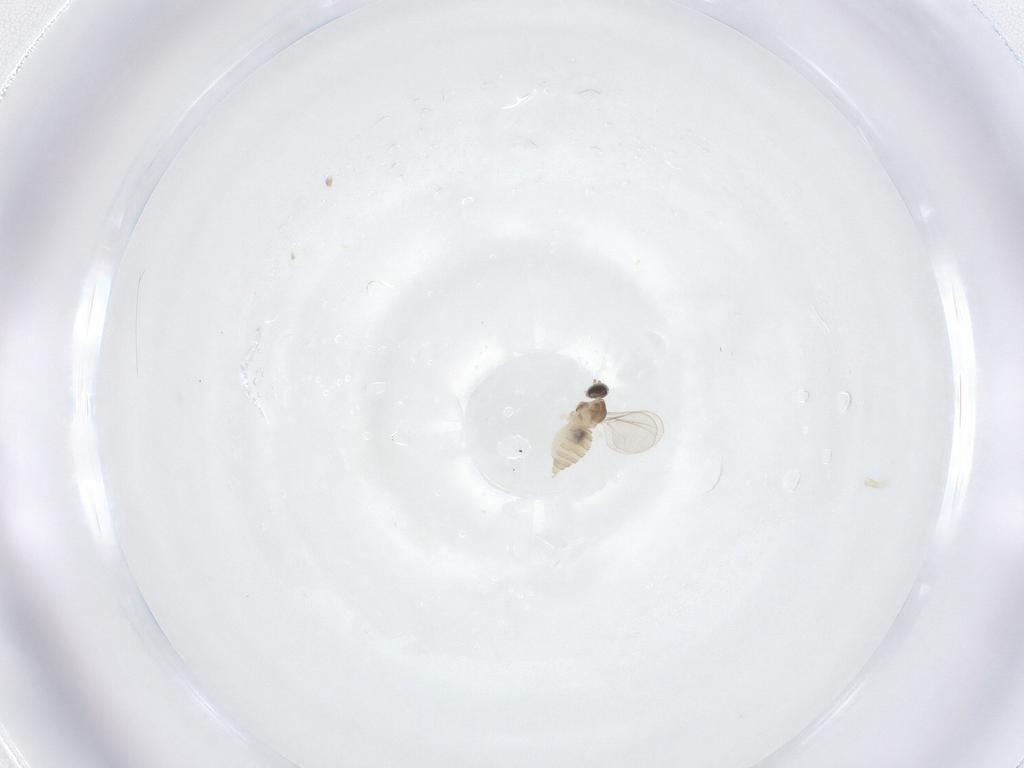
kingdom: Animalia
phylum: Arthropoda
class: Insecta
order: Diptera
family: Cecidomyiidae
